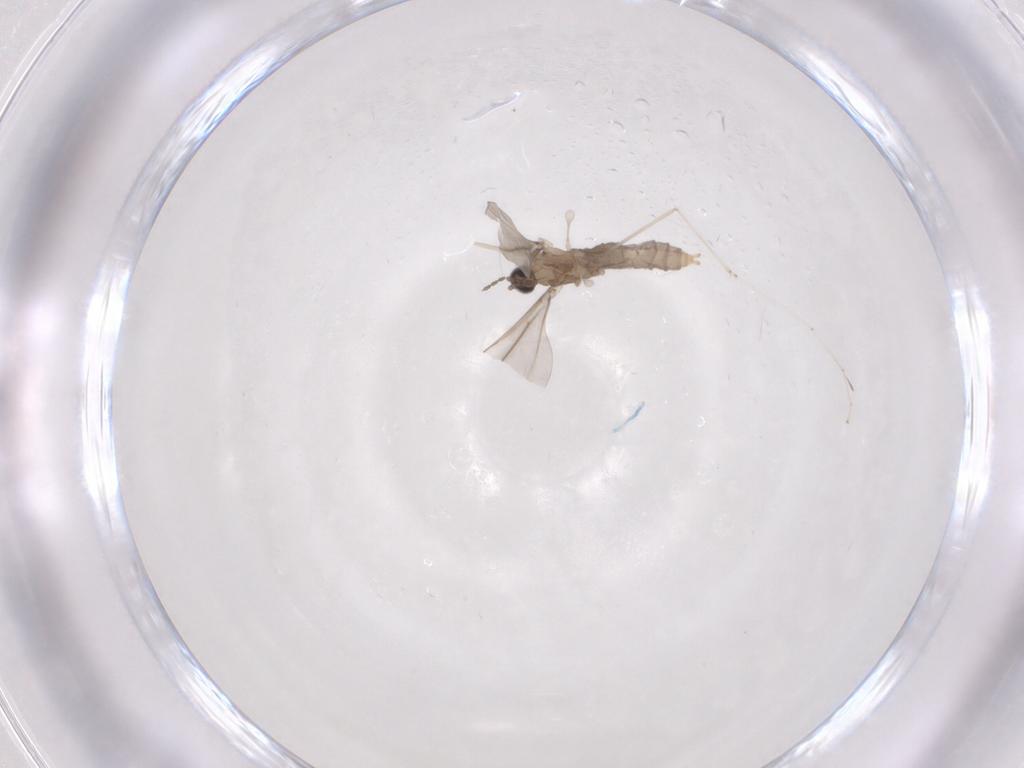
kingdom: Animalia
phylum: Arthropoda
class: Insecta
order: Diptera
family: Cecidomyiidae
